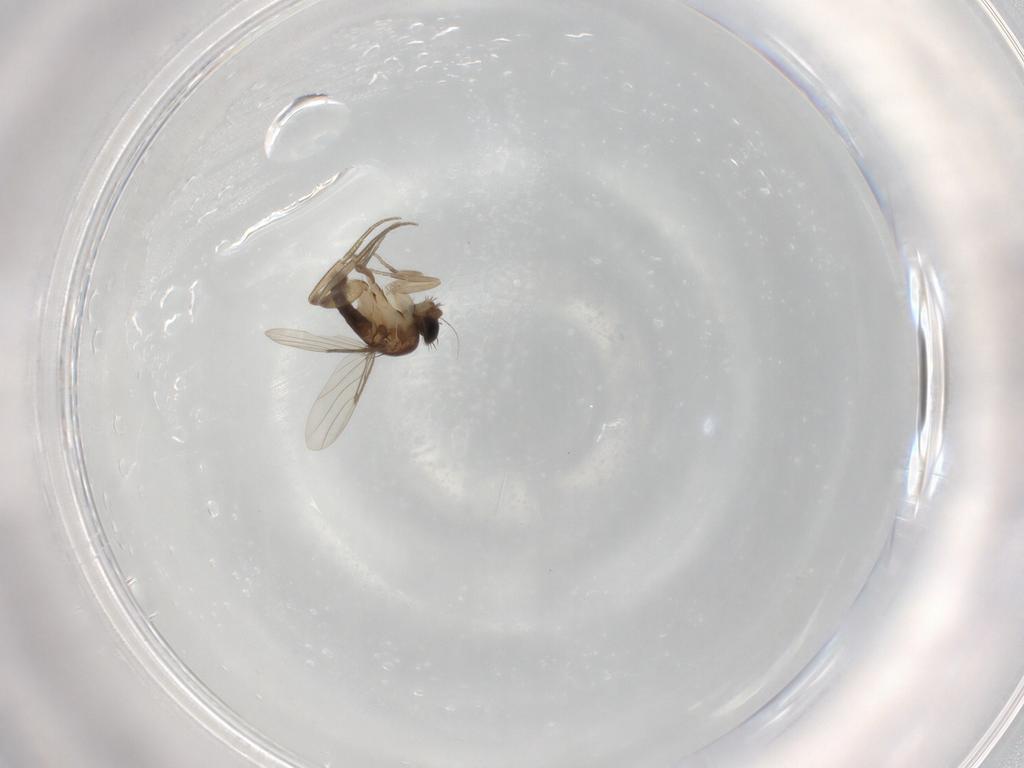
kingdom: Animalia
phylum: Arthropoda
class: Insecta
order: Diptera
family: Phoridae
